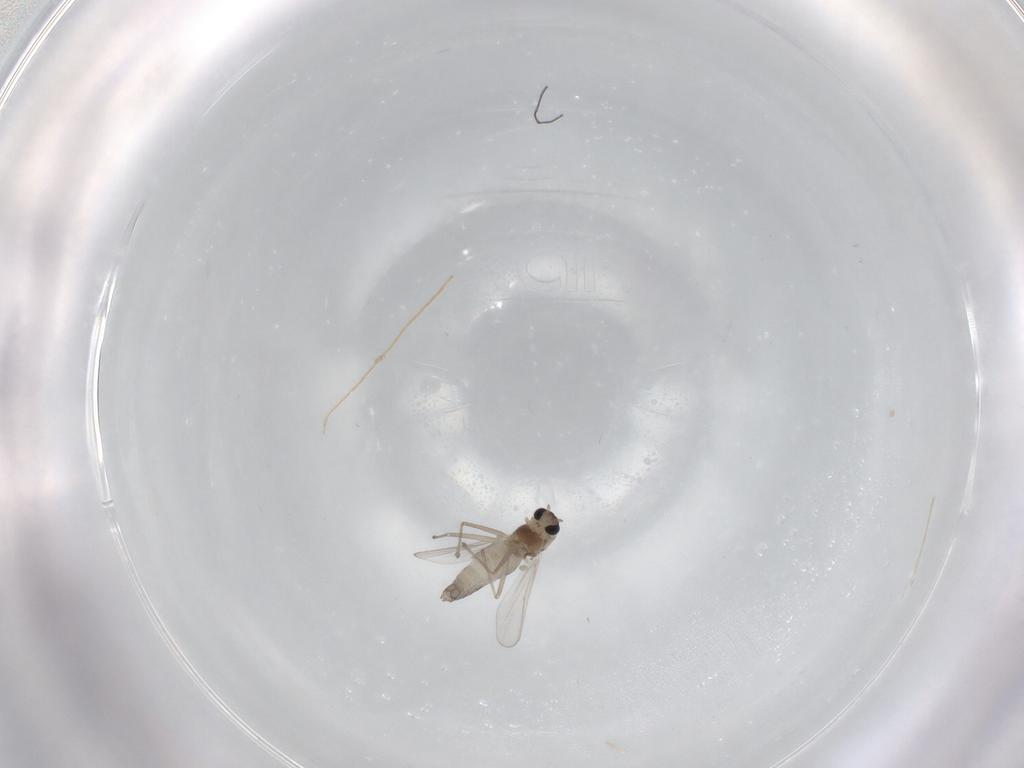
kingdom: Animalia
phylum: Arthropoda
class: Insecta
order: Diptera
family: Chironomidae
